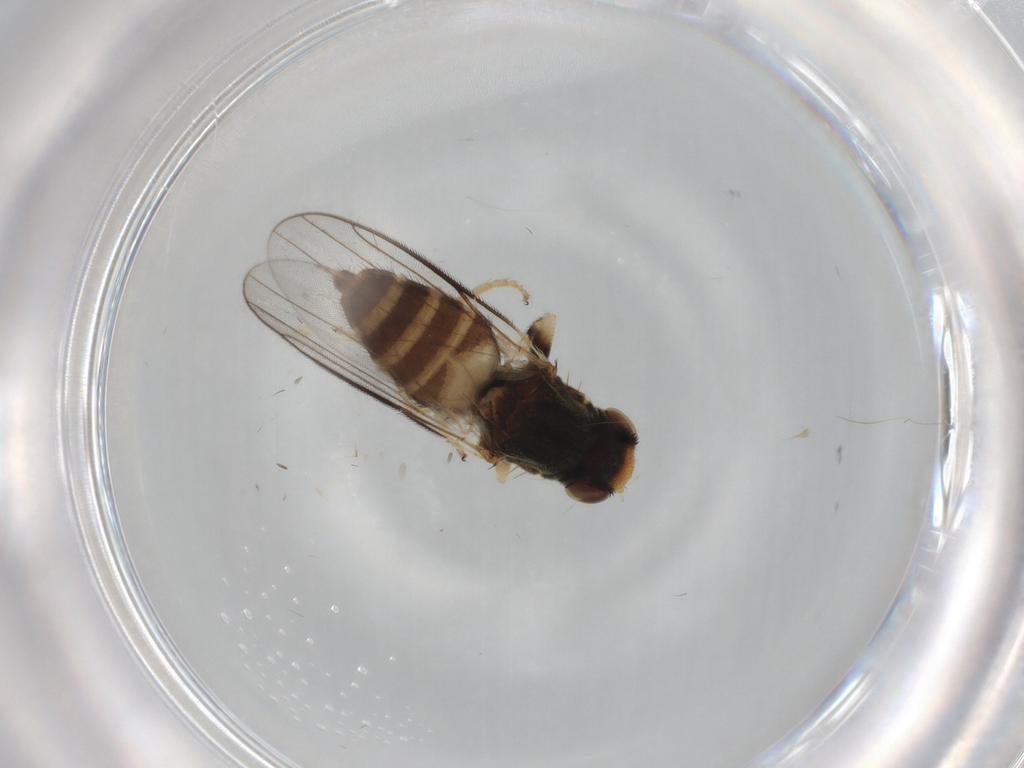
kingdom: Animalia
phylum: Arthropoda
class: Insecta
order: Diptera
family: Chloropidae
